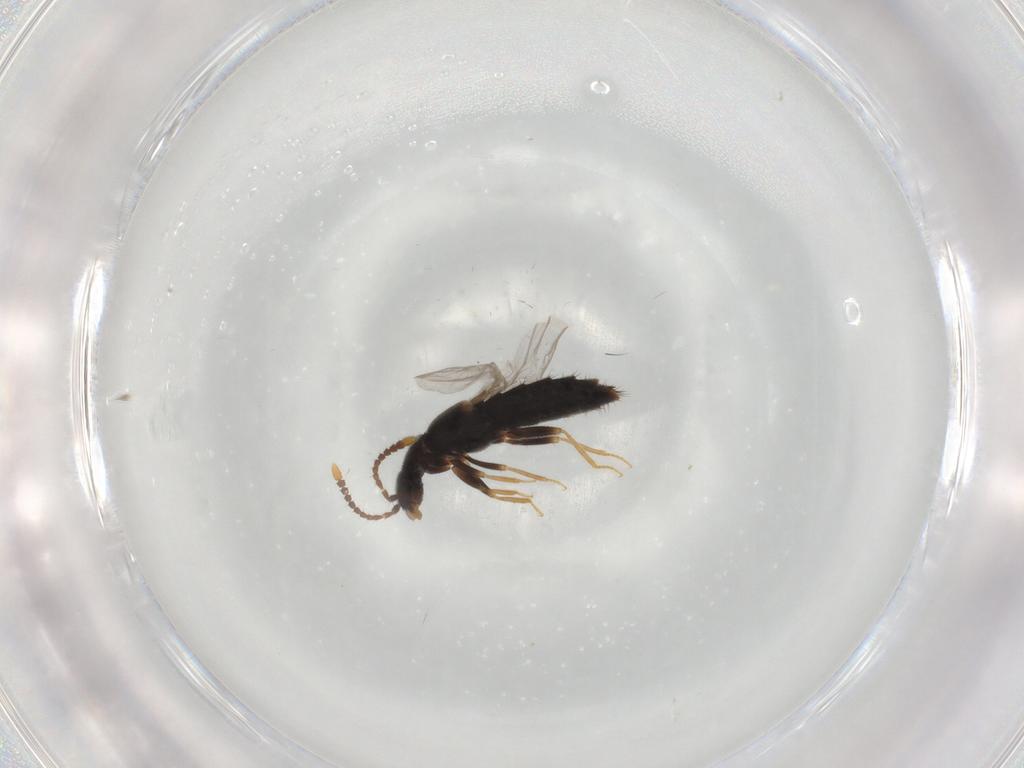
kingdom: Animalia
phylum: Arthropoda
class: Insecta
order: Coleoptera
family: Staphylinidae
